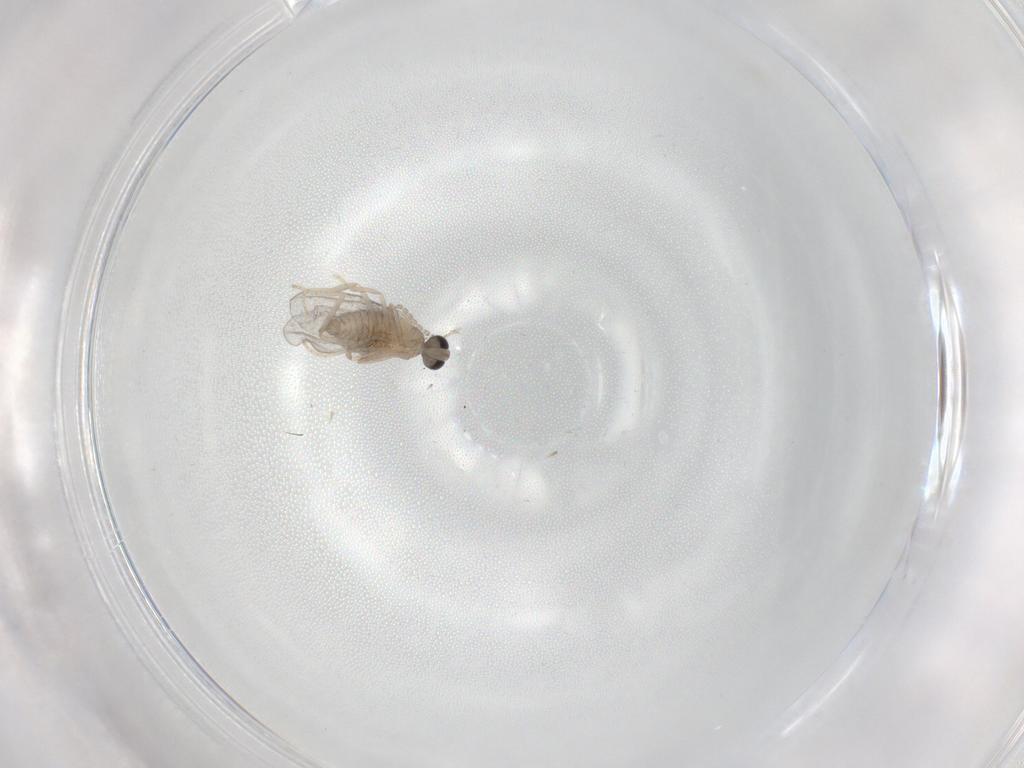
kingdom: Animalia
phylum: Arthropoda
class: Insecta
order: Diptera
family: Cecidomyiidae
